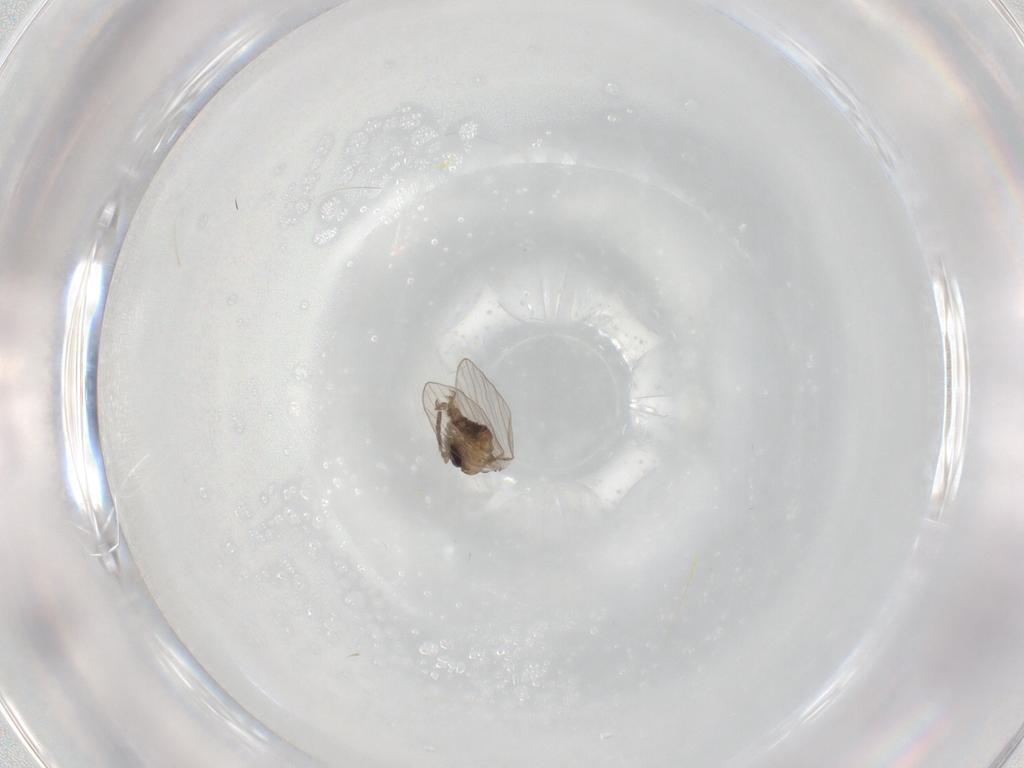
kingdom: Animalia
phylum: Arthropoda
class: Insecta
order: Diptera
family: Psychodidae
